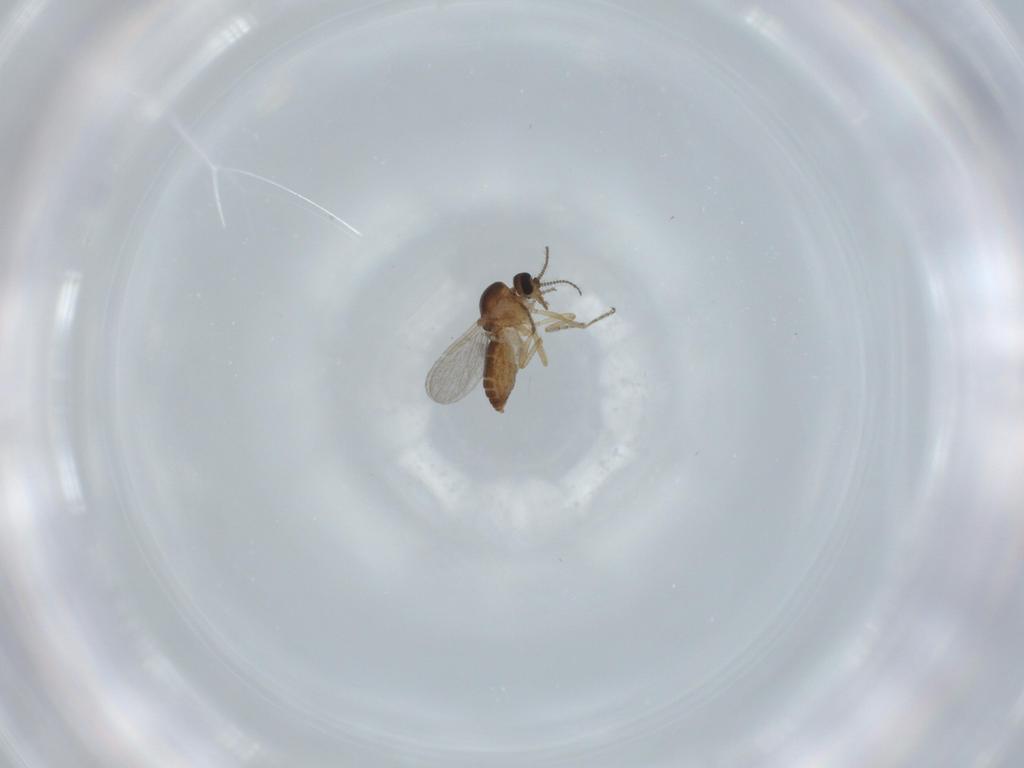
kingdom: Animalia
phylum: Arthropoda
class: Insecta
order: Diptera
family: Ceratopogonidae
